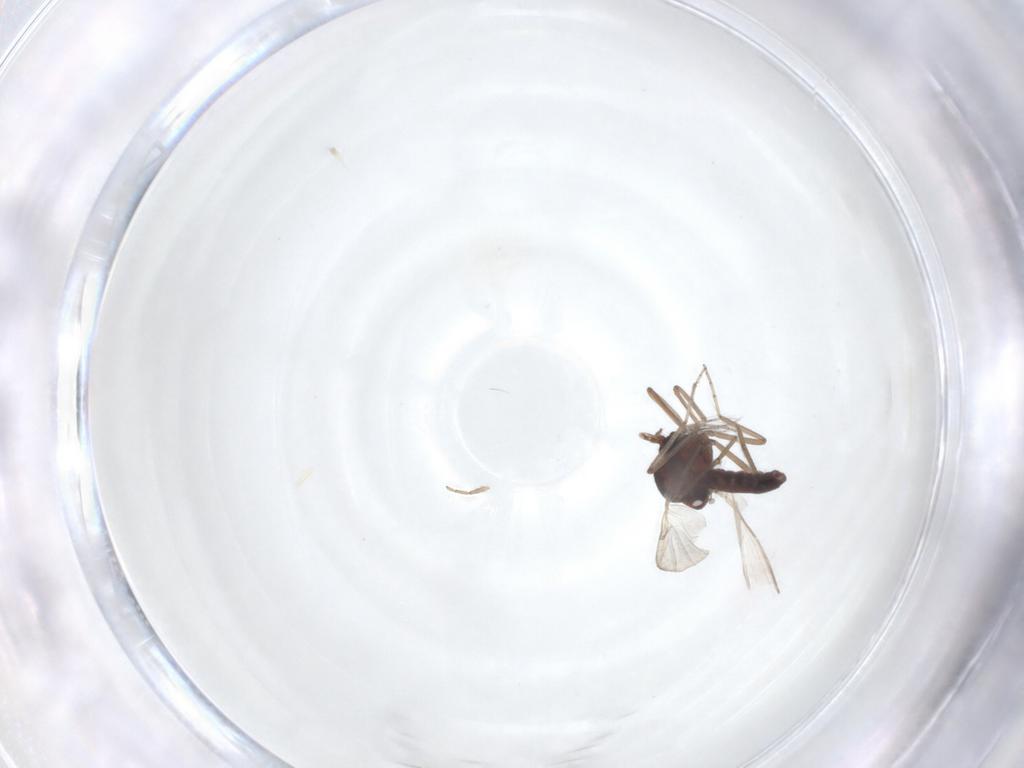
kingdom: Animalia
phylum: Arthropoda
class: Insecta
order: Diptera
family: Ceratopogonidae
